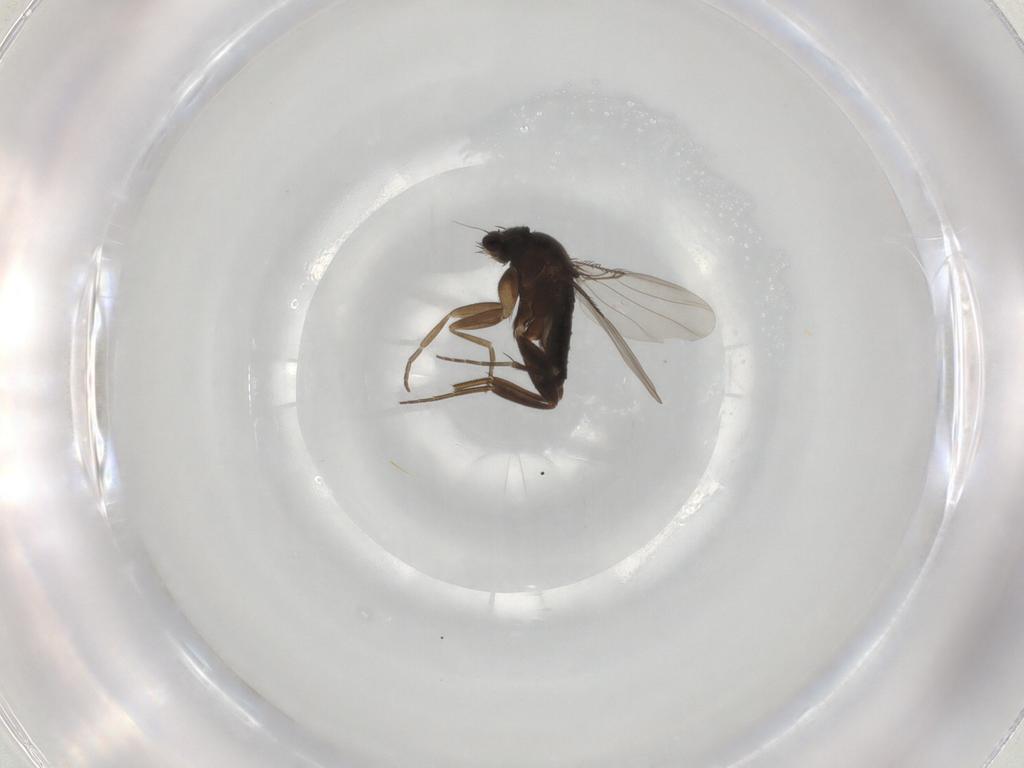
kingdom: Animalia
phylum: Arthropoda
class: Insecta
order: Diptera
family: Phoridae
